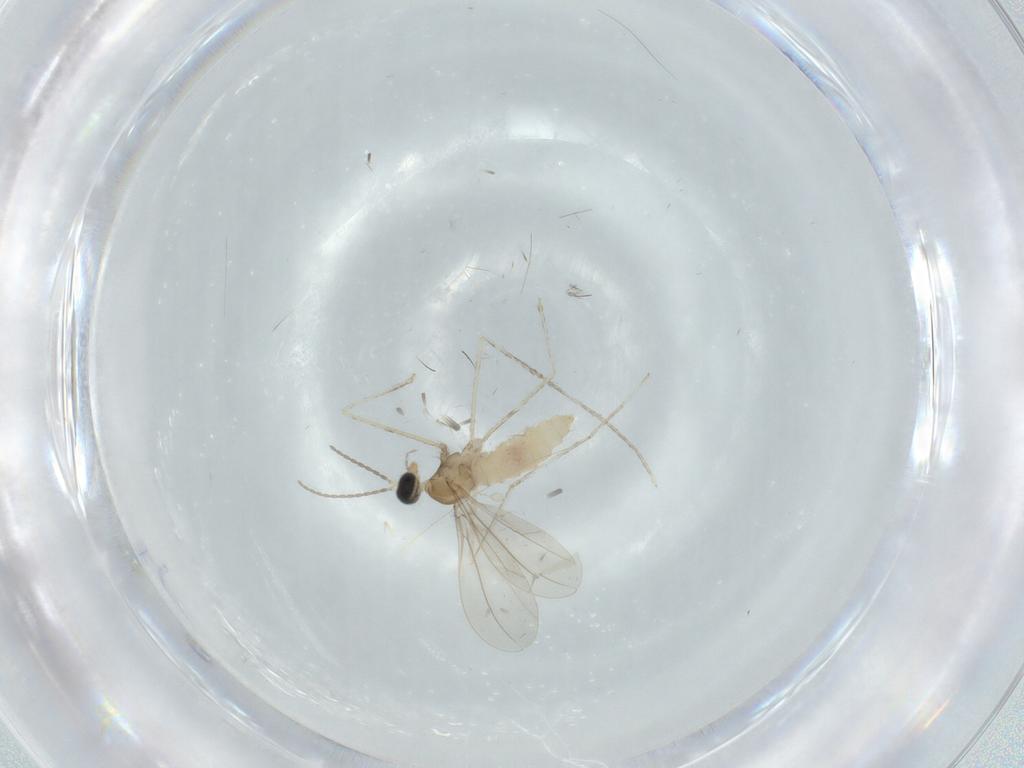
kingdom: Animalia
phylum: Arthropoda
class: Insecta
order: Diptera
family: Cecidomyiidae
